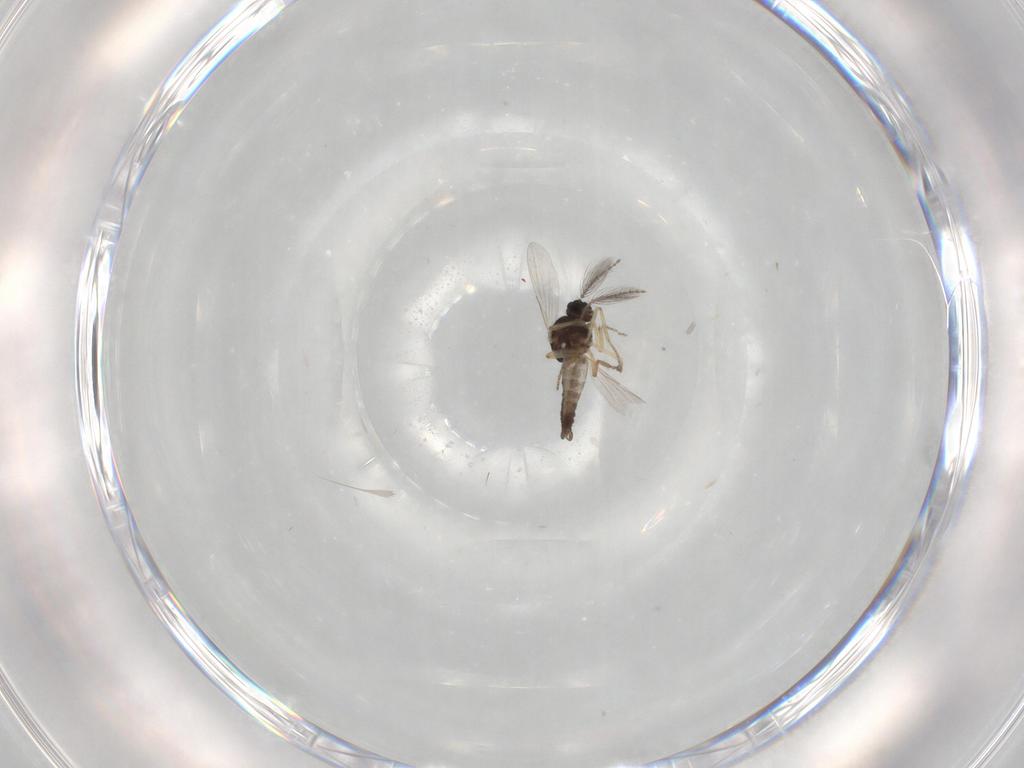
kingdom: Animalia
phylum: Arthropoda
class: Insecta
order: Diptera
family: Ceratopogonidae
